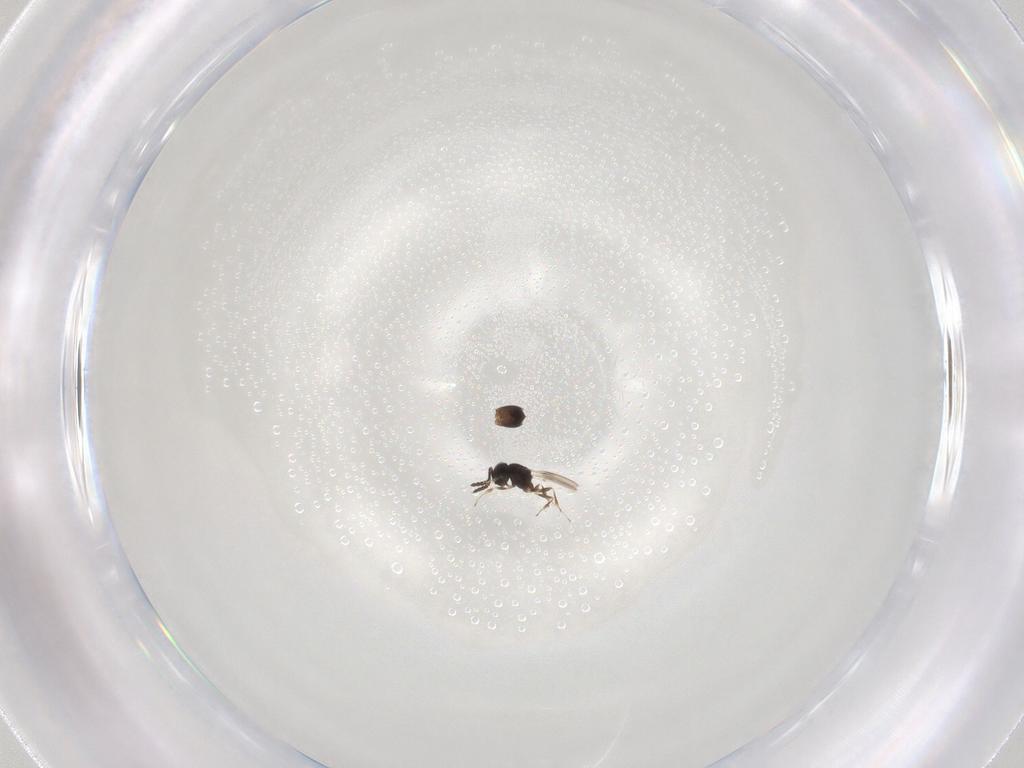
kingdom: Animalia
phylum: Arthropoda
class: Insecta
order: Hymenoptera
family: Scelionidae
